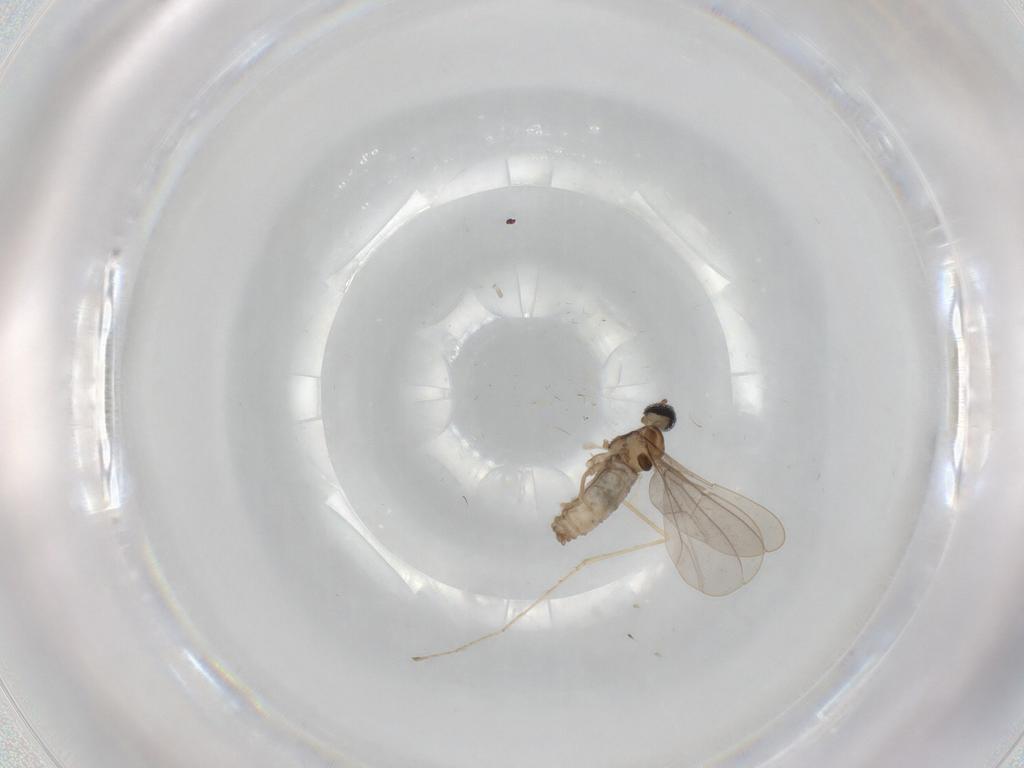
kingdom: Animalia
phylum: Arthropoda
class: Insecta
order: Diptera
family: Cecidomyiidae
